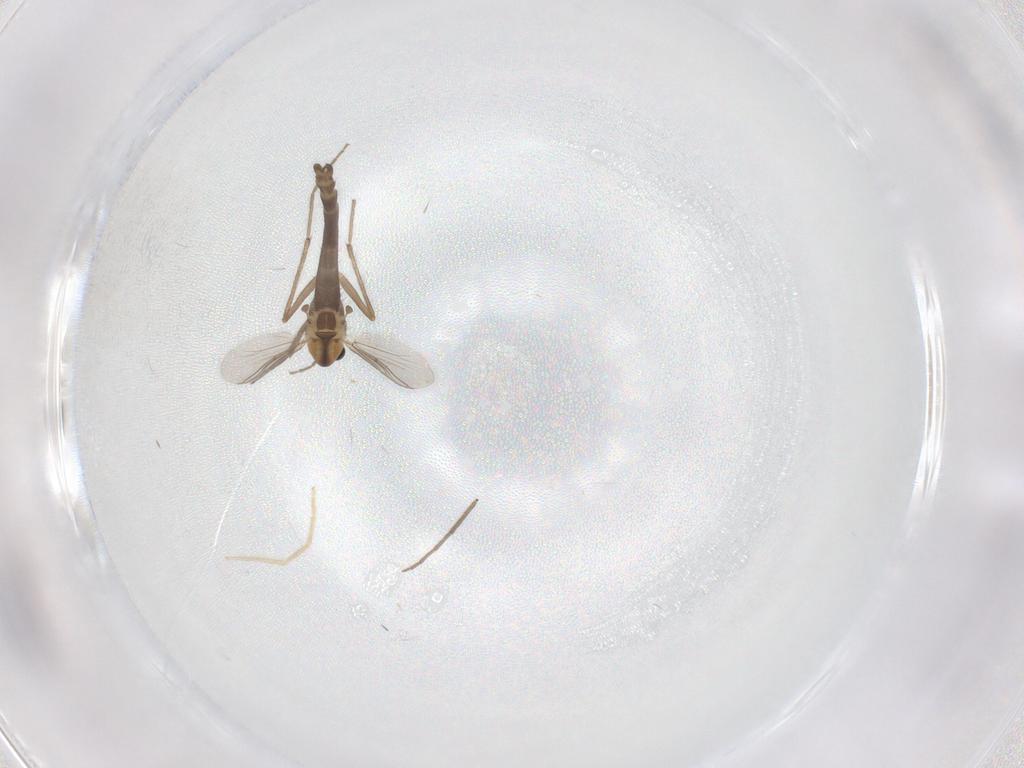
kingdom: Animalia
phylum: Arthropoda
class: Insecta
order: Diptera
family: Chironomidae
